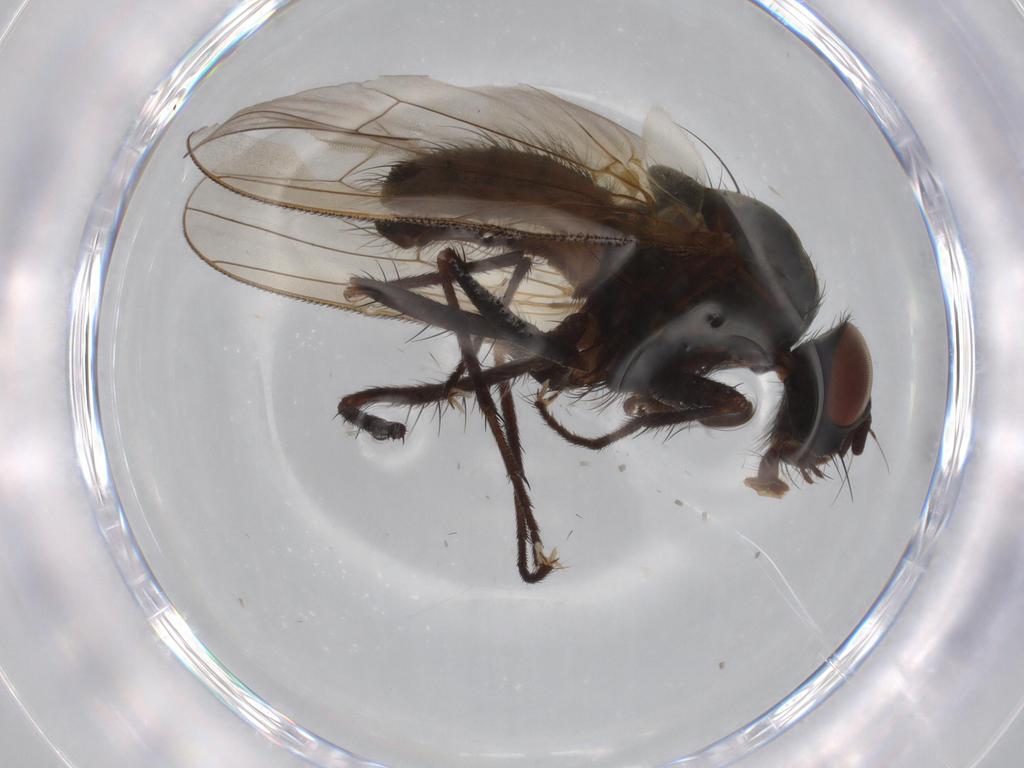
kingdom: Animalia
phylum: Arthropoda
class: Insecta
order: Diptera
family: Anthomyiidae
